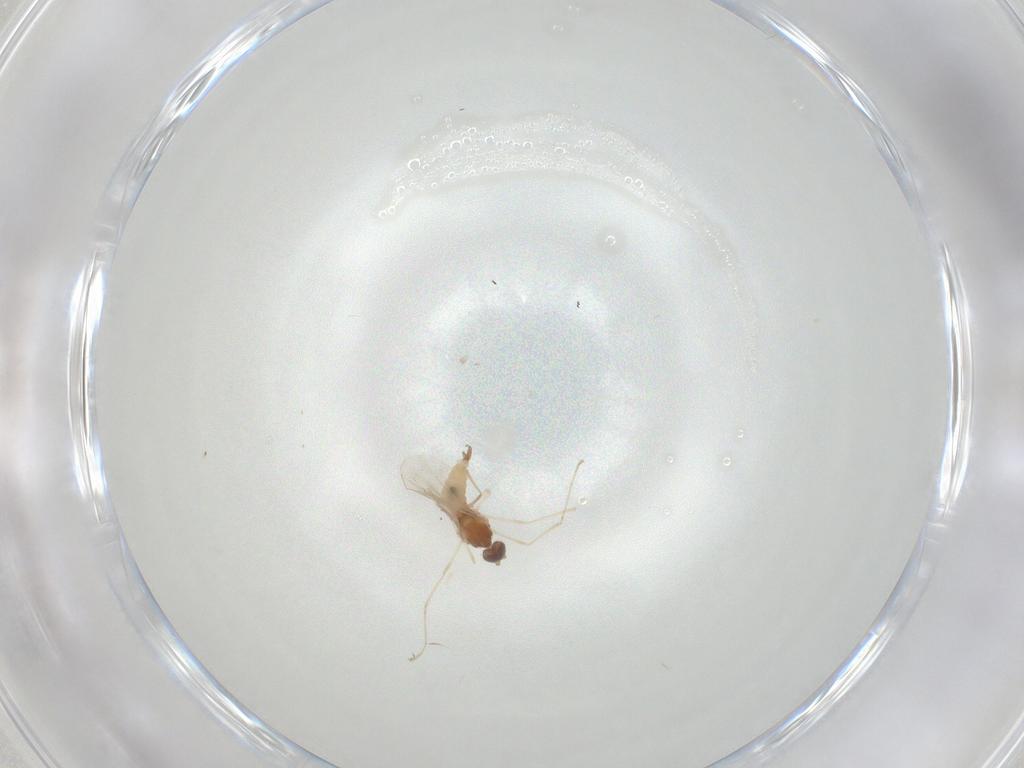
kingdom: Animalia
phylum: Arthropoda
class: Insecta
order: Diptera
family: Cecidomyiidae
